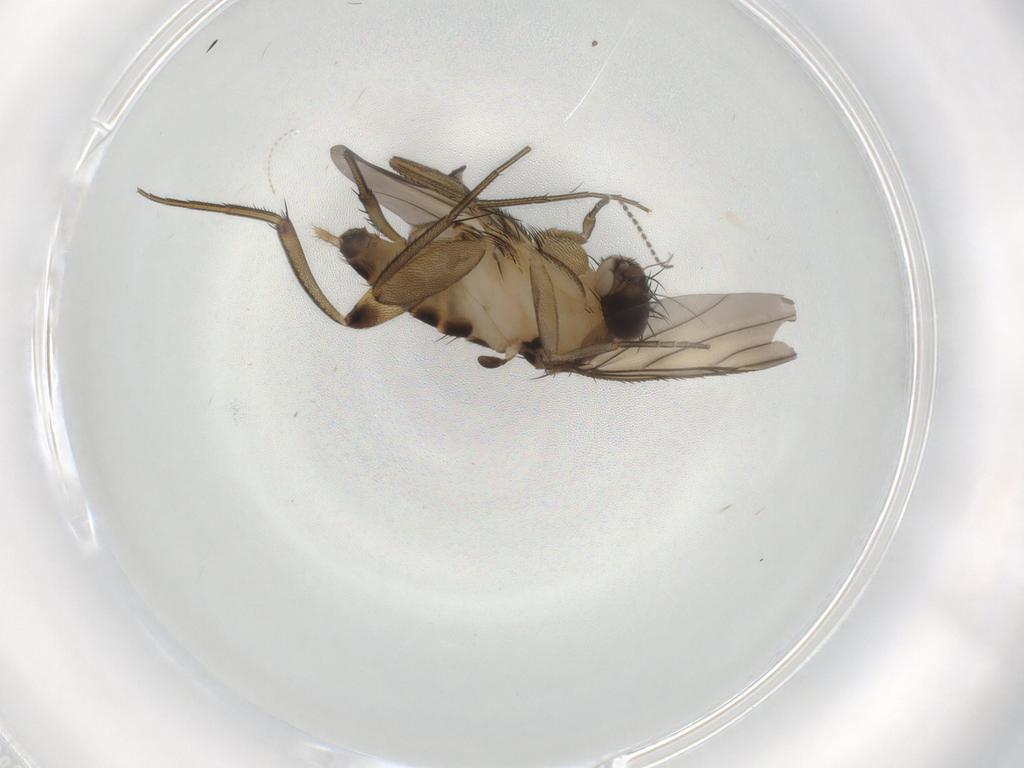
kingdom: Animalia
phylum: Arthropoda
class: Insecta
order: Diptera
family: Phoridae
